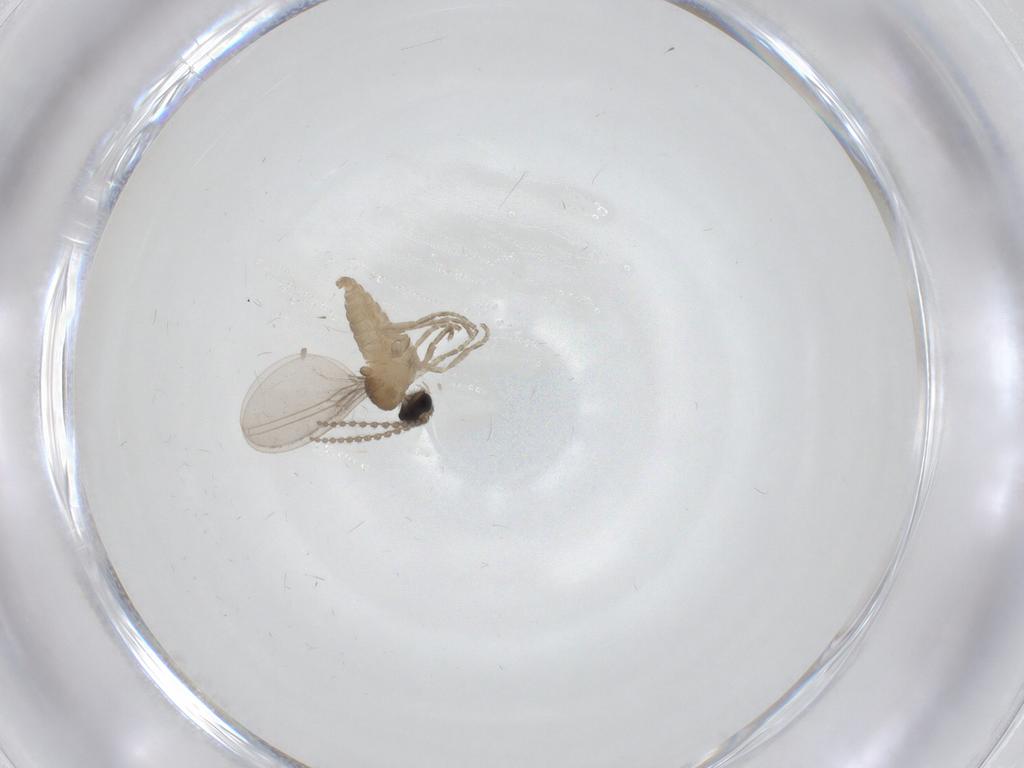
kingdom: Animalia
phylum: Arthropoda
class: Insecta
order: Diptera
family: Cecidomyiidae
